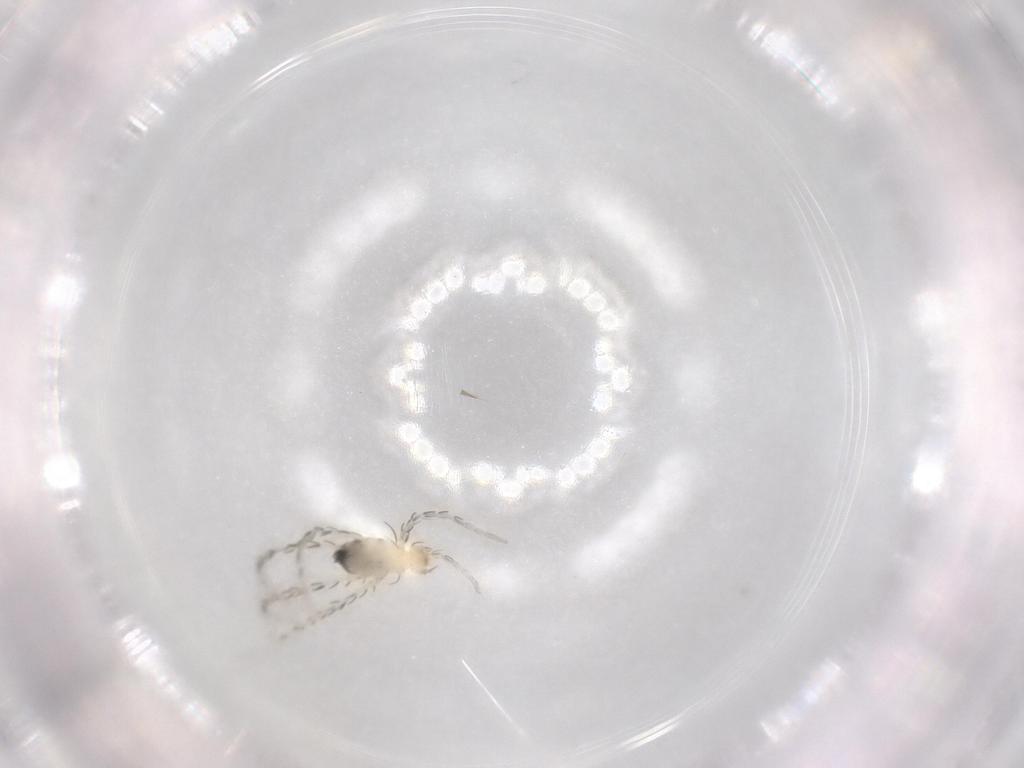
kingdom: Animalia
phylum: Arthropoda
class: Arachnida
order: Trombidiformes
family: Erythraeidae
